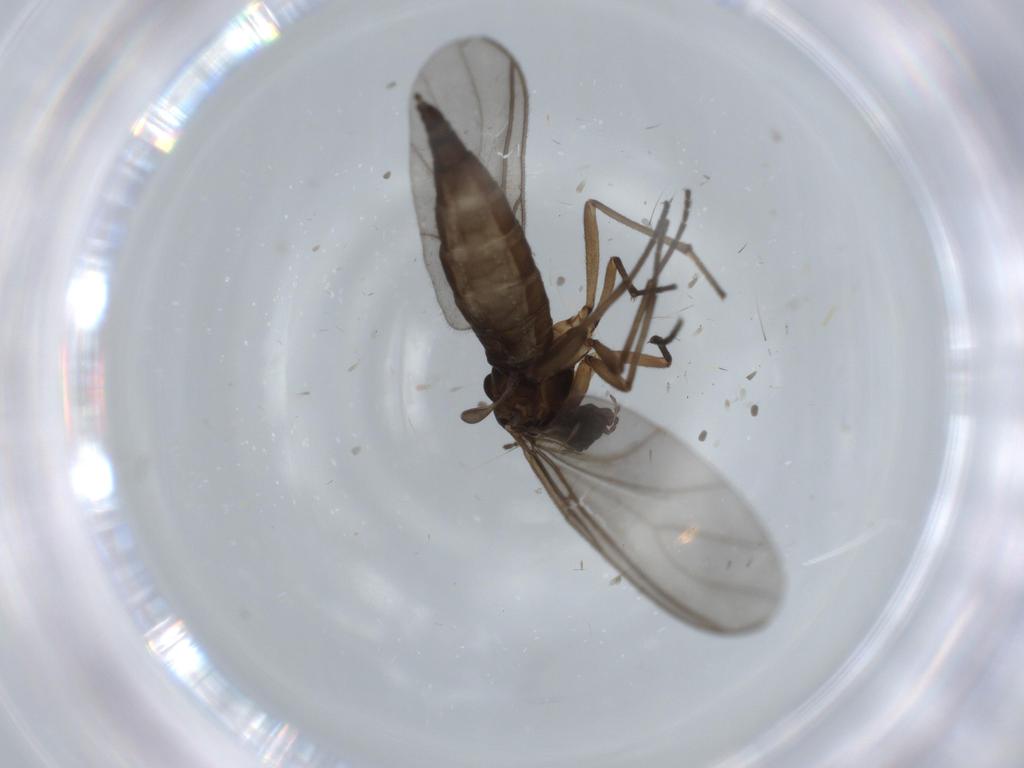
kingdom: Animalia
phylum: Arthropoda
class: Insecta
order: Diptera
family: Sciaridae
